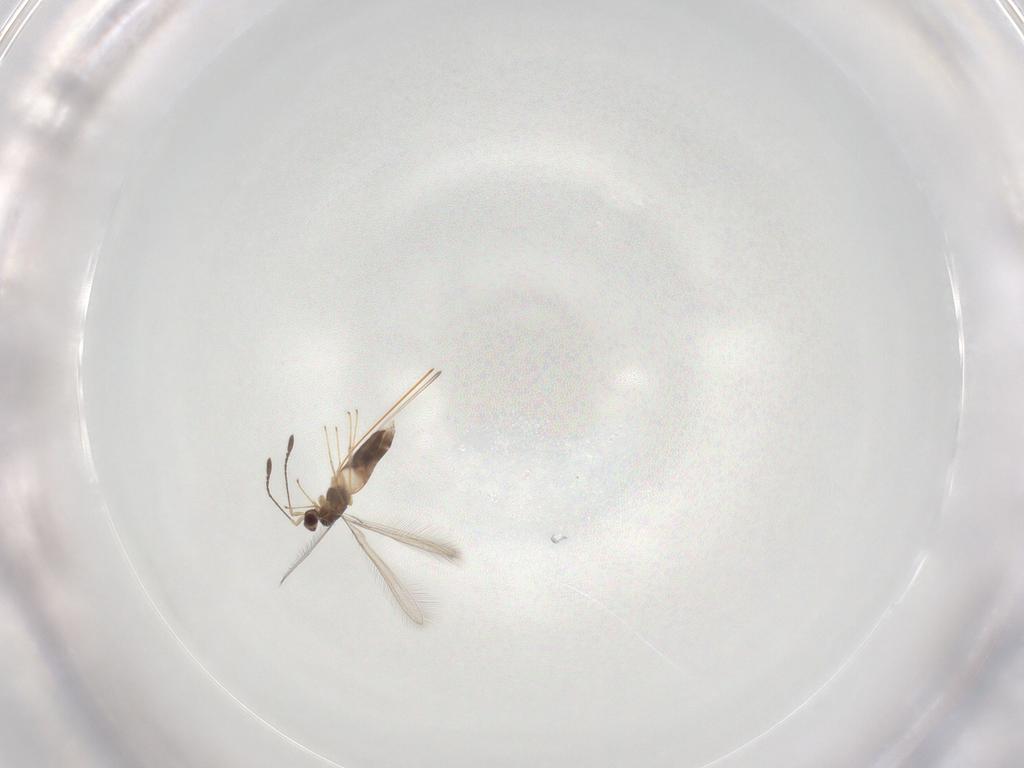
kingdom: Animalia
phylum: Arthropoda
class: Insecta
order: Hymenoptera
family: Mymaridae
